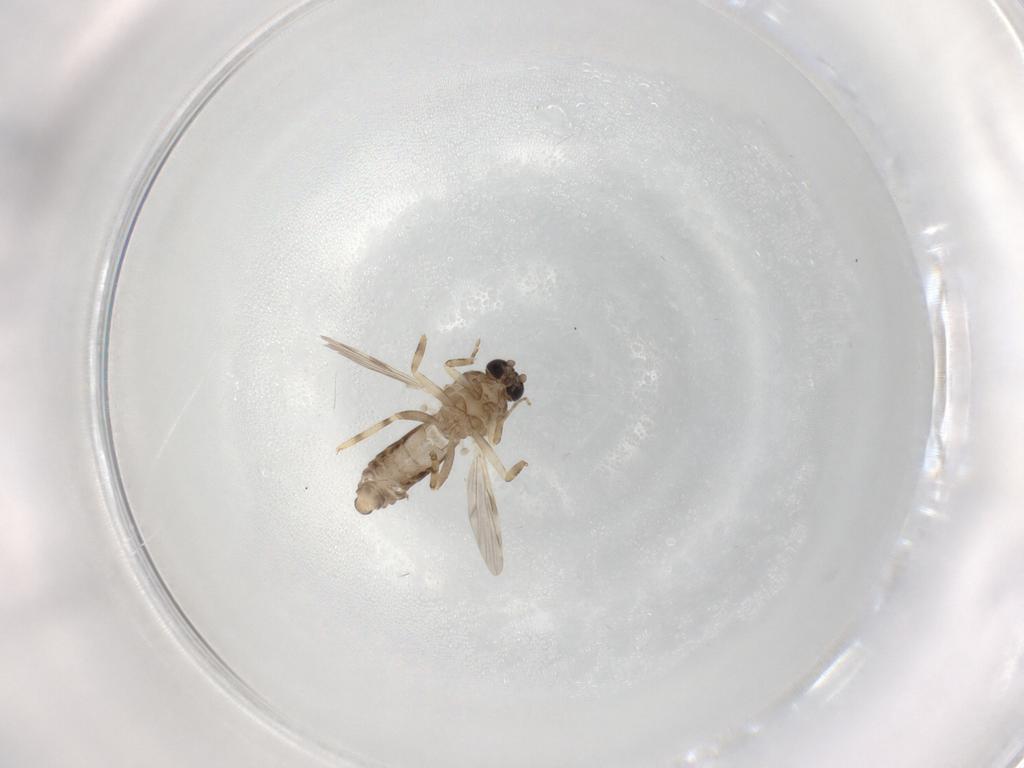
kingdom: Animalia
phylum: Arthropoda
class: Insecta
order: Diptera
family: Ceratopogonidae
